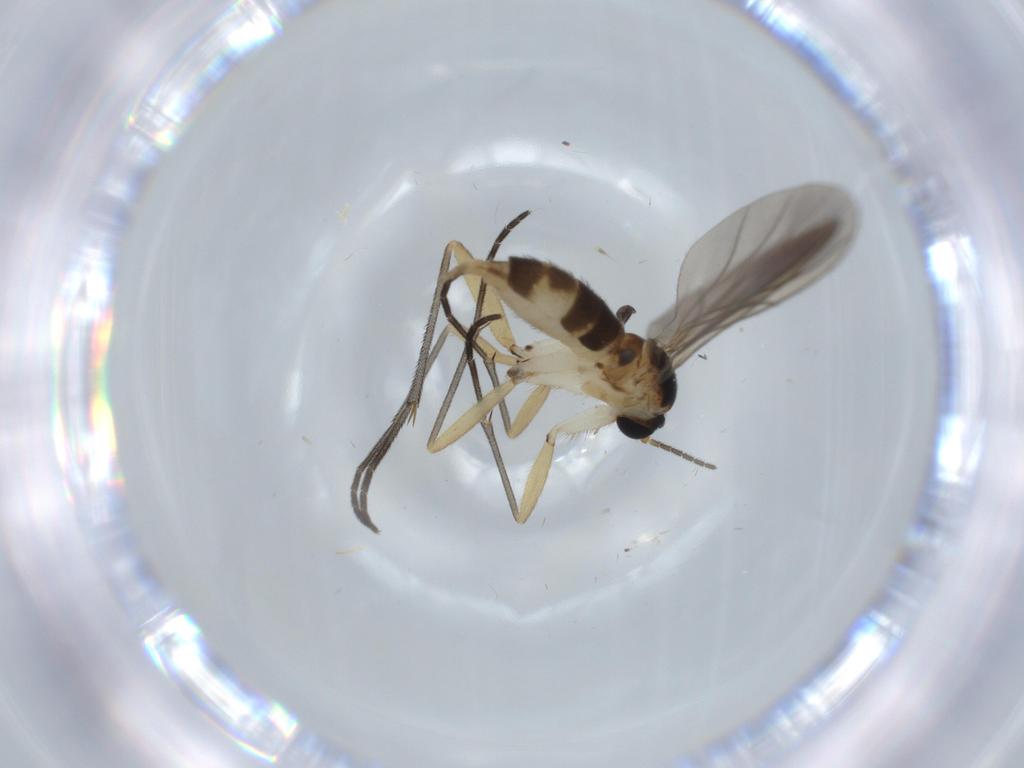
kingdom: Animalia
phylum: Arthropoda
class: Insecta
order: Diptera
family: Sciaridae
